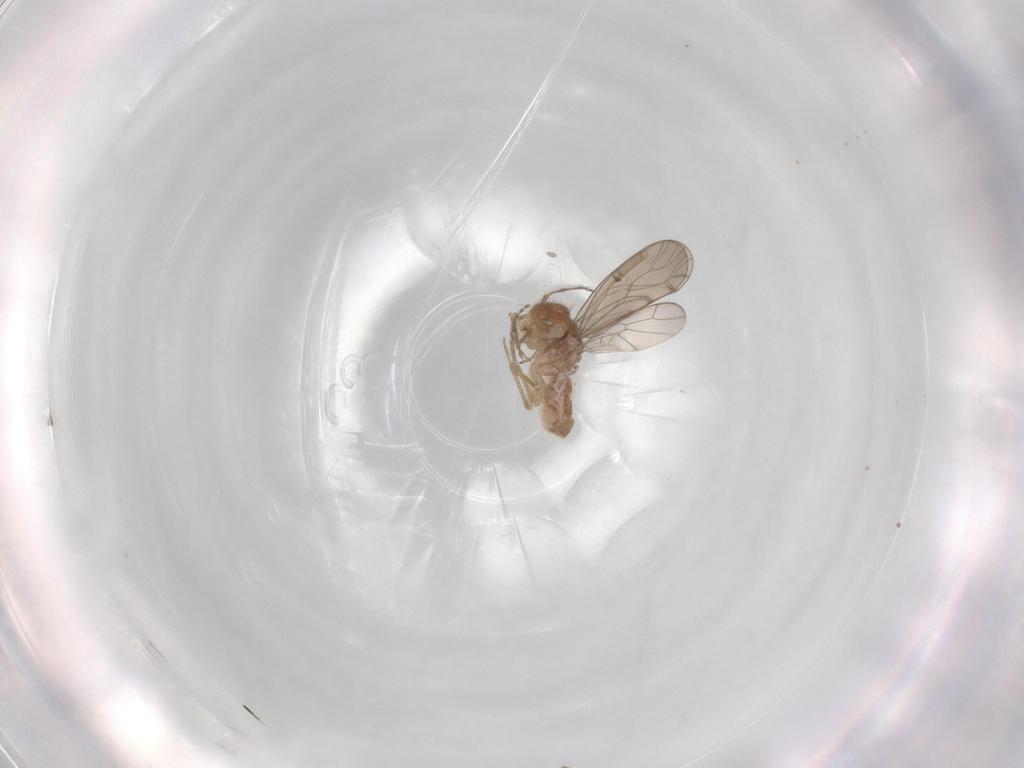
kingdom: Animalia
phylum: Arthropoda
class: Insecta
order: Psocodea
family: Ectopsocidae
